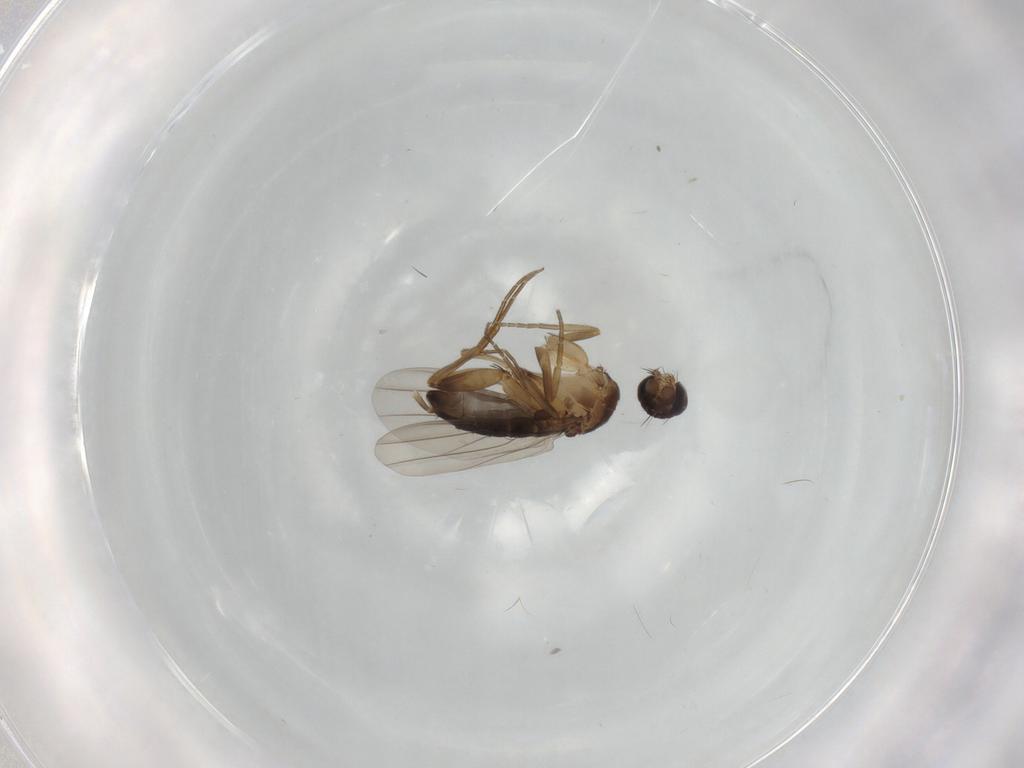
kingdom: Animalia
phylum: Arthropoda
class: Insecta
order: Diptera
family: Phoridae
